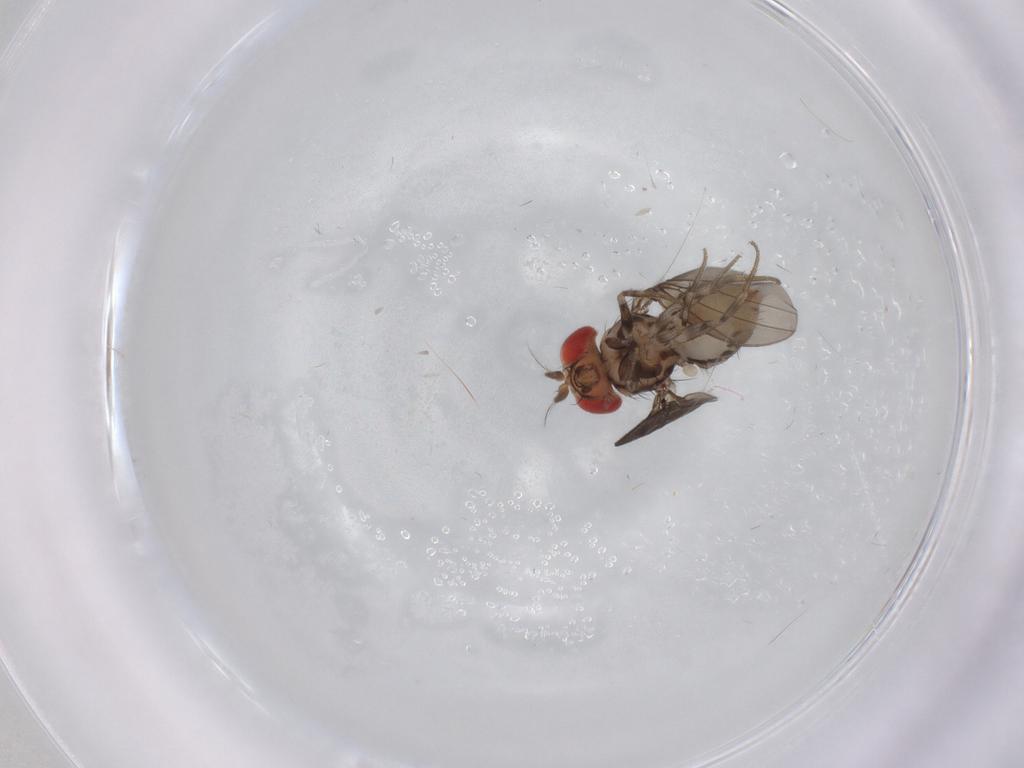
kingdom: Animalia
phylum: Arthropoda
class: Insecta
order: Diptera
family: Drosophilidae
